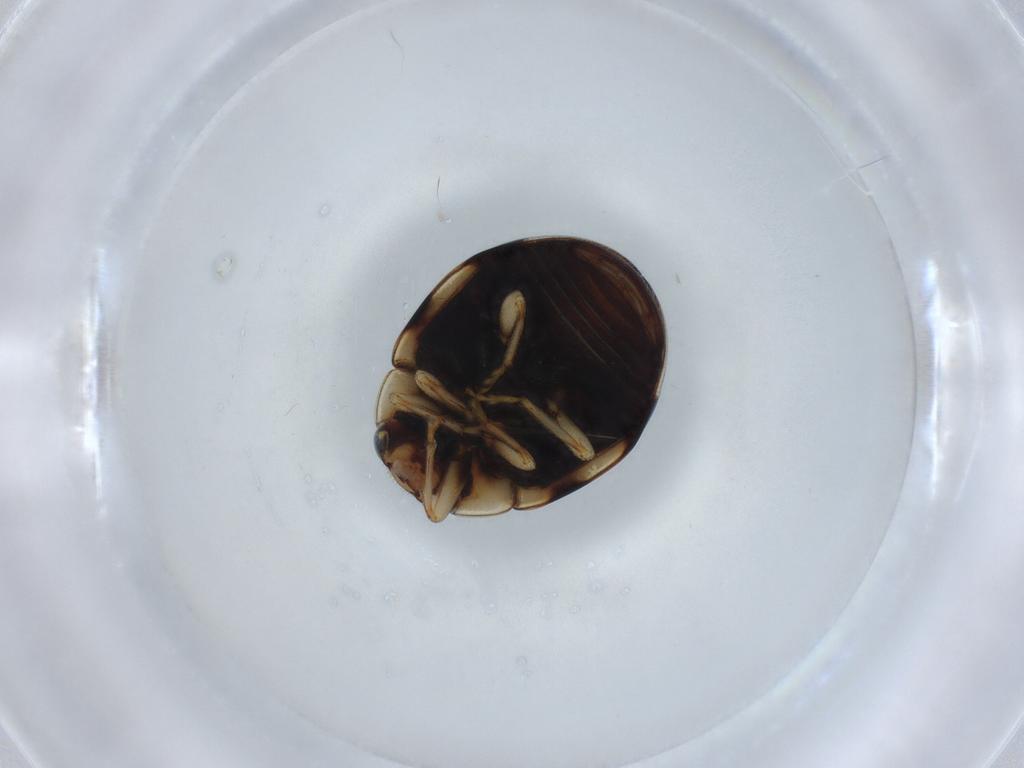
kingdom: Animalia
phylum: Arthropoda
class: Insecta
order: Coleoptera
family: Coccinellidae
